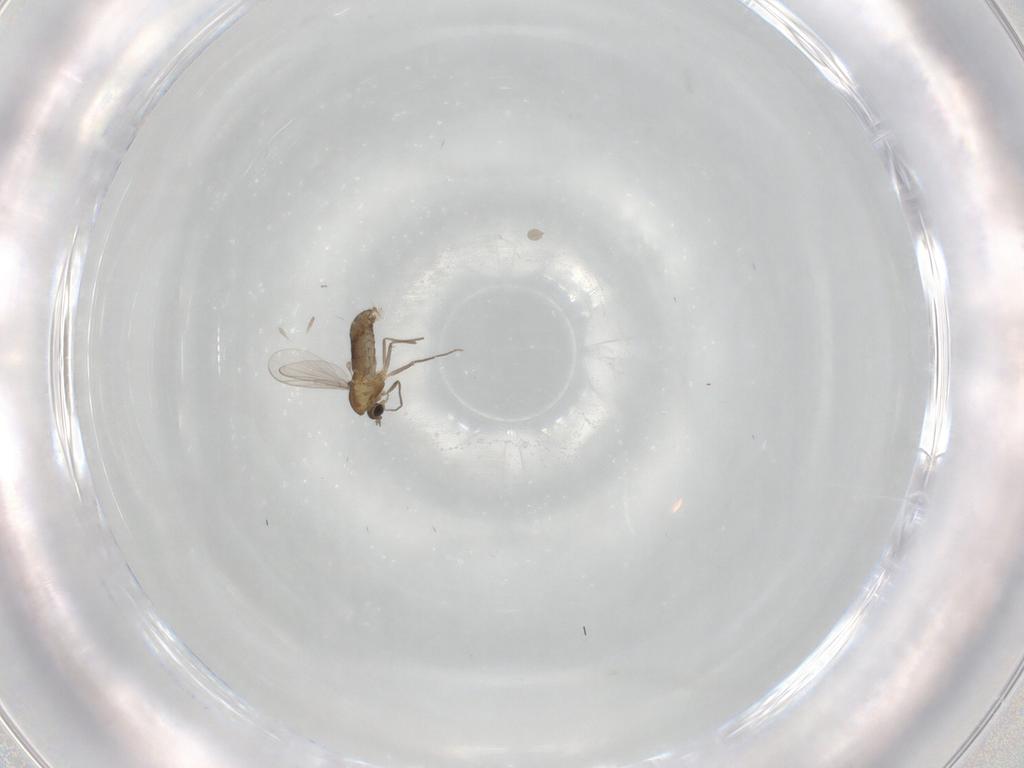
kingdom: Animalia
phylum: Arthropoda
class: Insecta
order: Diptera
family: Chironomidae
